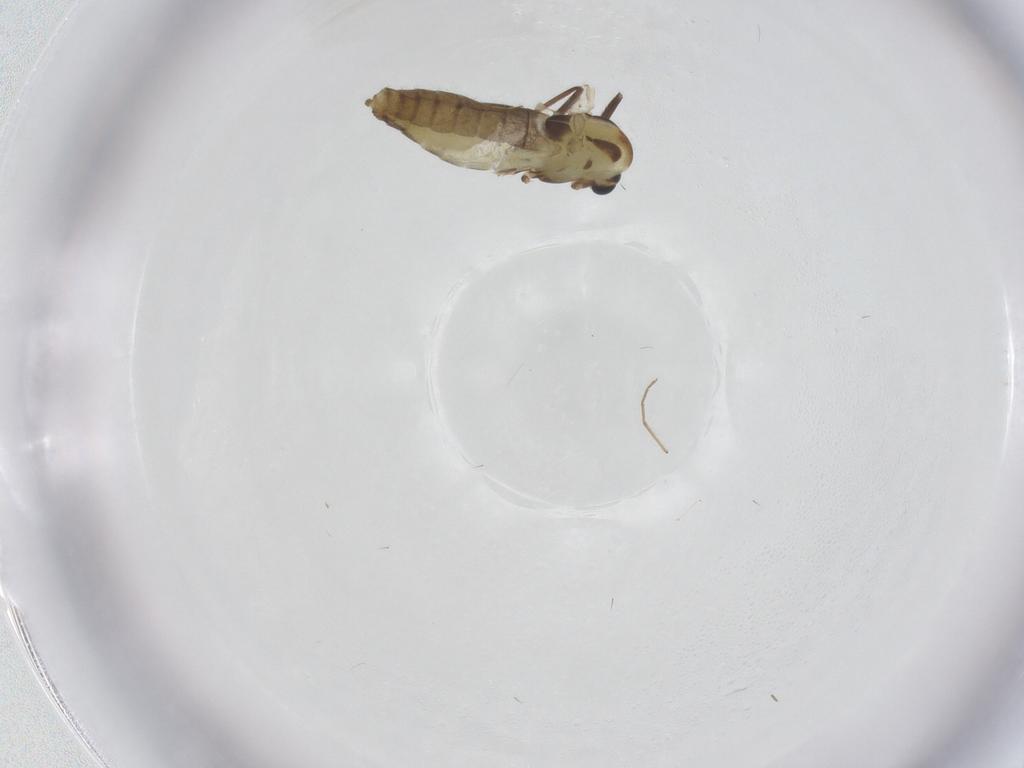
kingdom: Animalia
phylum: Arthropoda
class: Insecta
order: Diptera
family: Chironomidae
